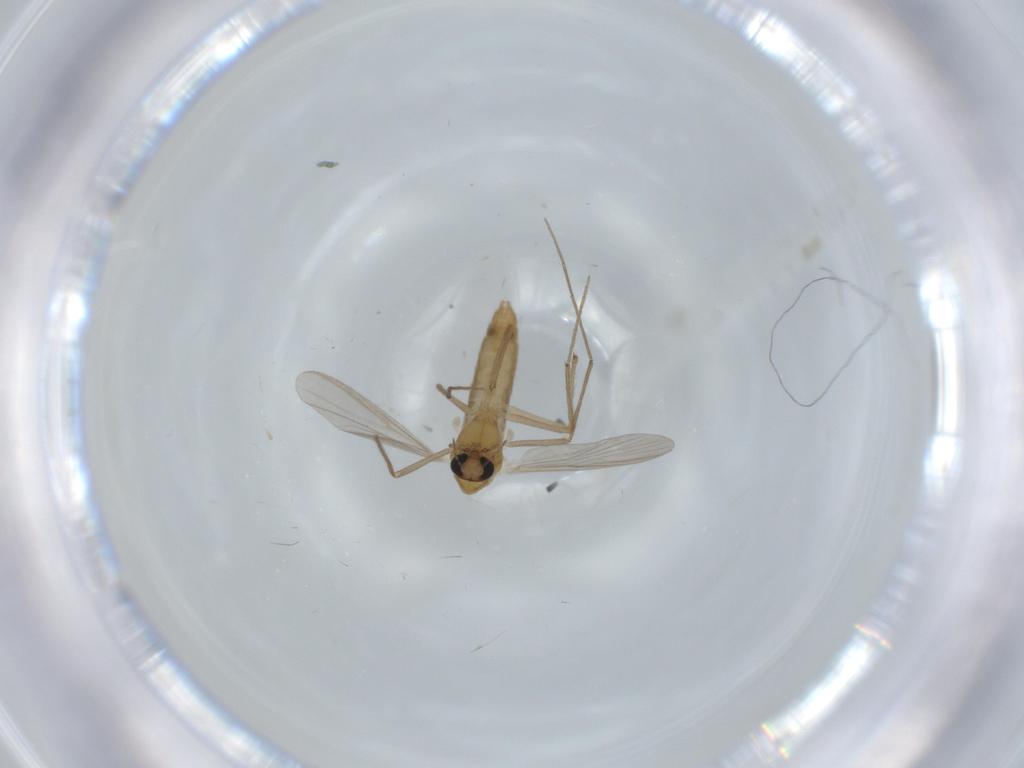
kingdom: Animalia
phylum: Arthropoda
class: Insecta
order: Diptera
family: Chironomidae
